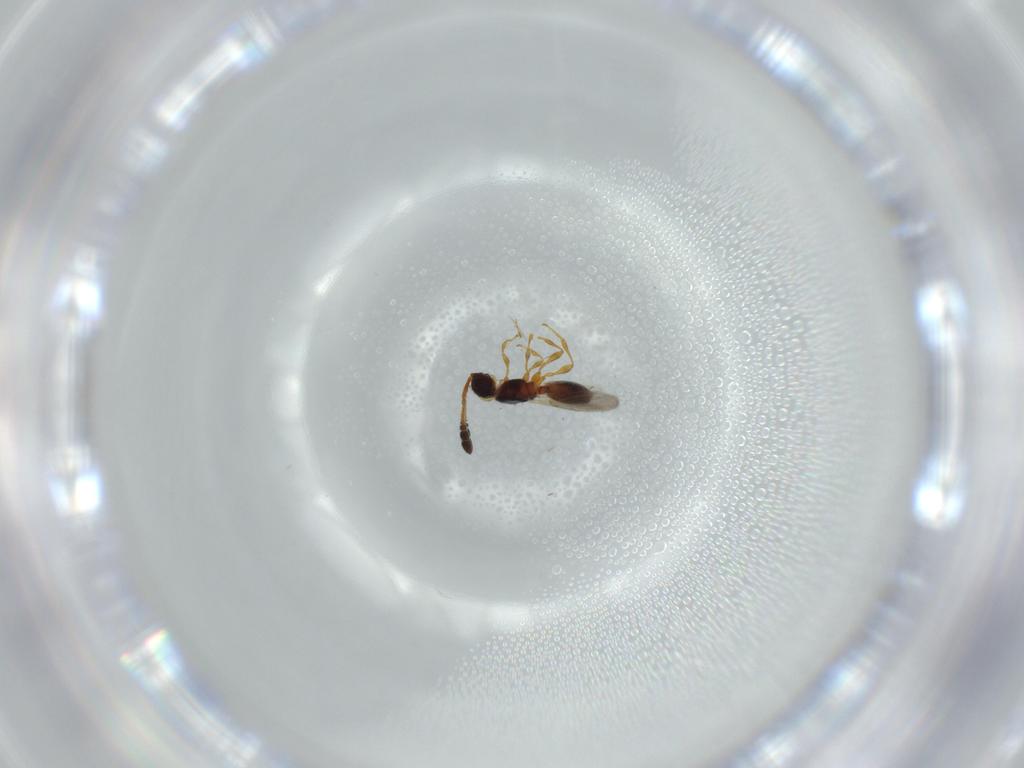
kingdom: Animalia
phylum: Arthropoda
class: Insecta
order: Hymenoptera
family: Diapriidae
